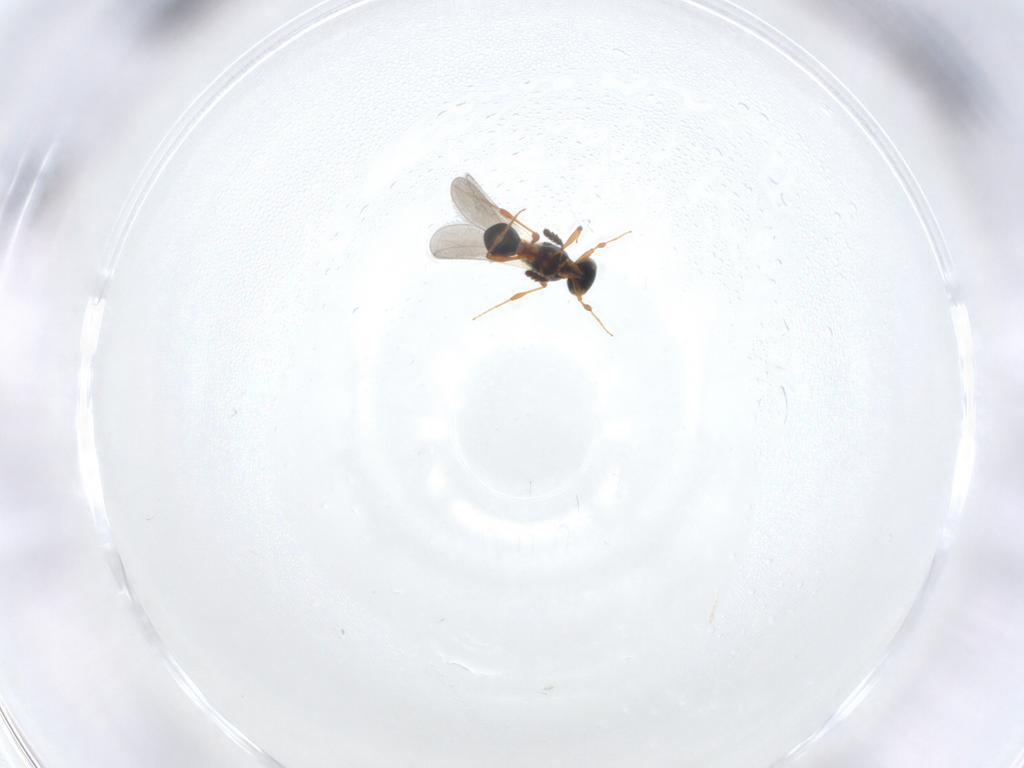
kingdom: Animalia
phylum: Arthropoda
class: Insecta
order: Hymenoptera
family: Platygastridae
